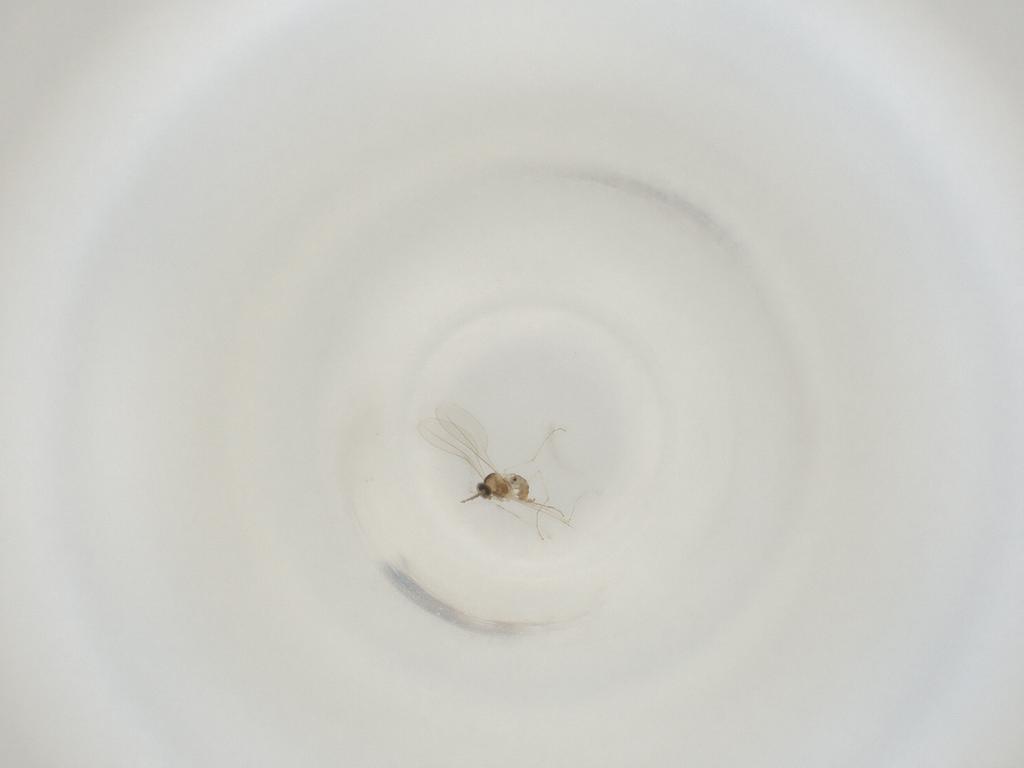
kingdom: Animalia
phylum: Arthropoda
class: Insecta
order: Diptera
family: Cecidomyiidae
